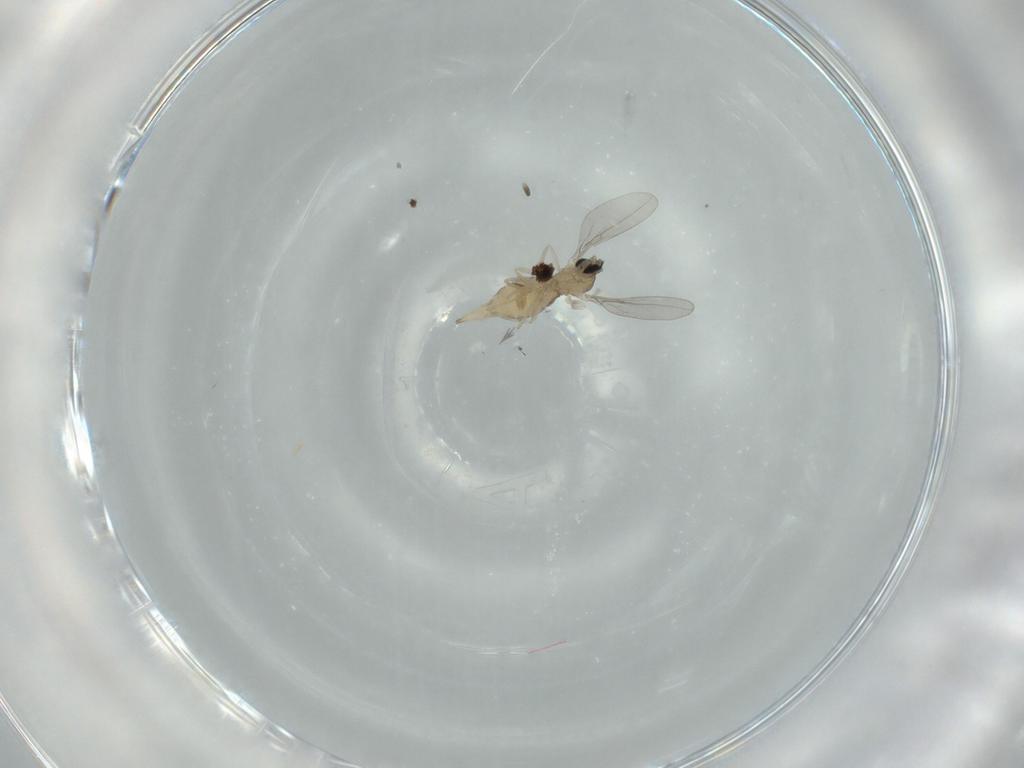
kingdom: Animalia
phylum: Arthropoda
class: Insecta
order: Diptera
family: Cecidomyiidae
